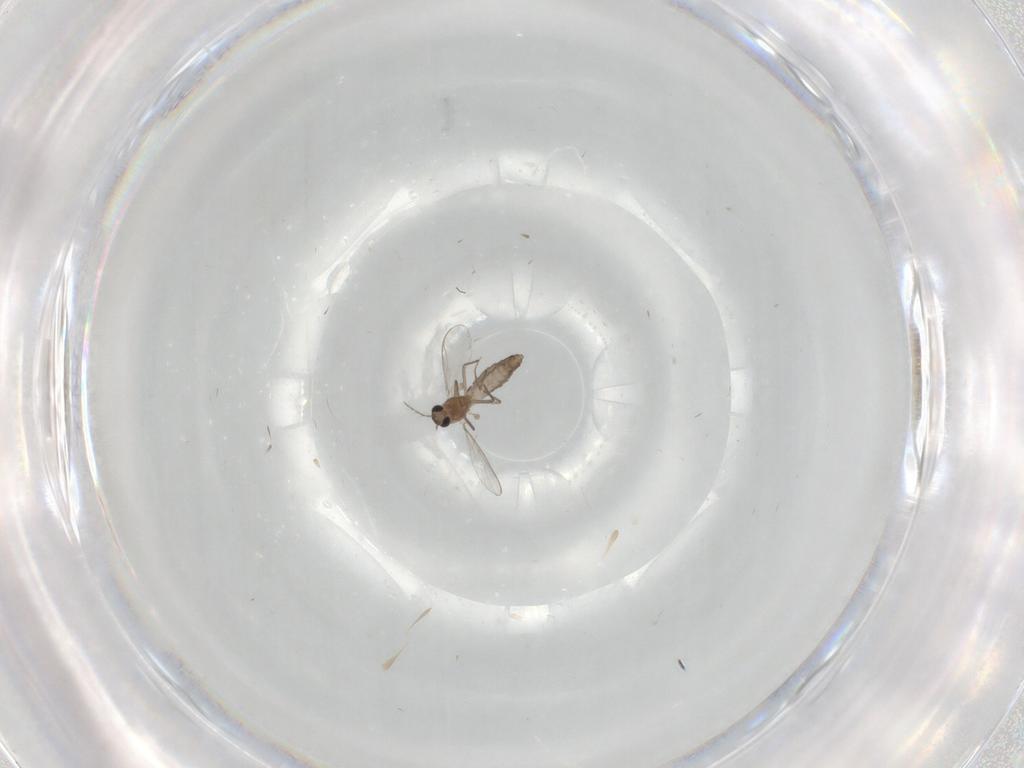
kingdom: Animalia
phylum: Arthropoda
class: Insecta
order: Diptera
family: Chironomidae
